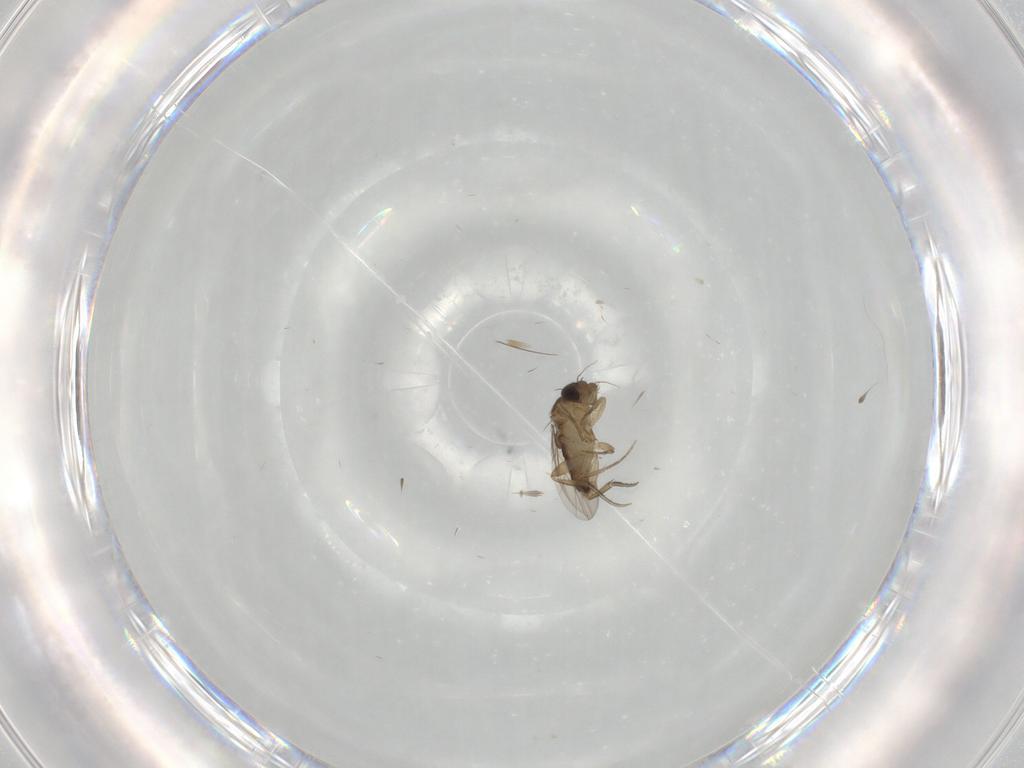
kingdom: Animalia
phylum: Arthropoda
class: Insecta
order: Diptera
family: Phoridae
